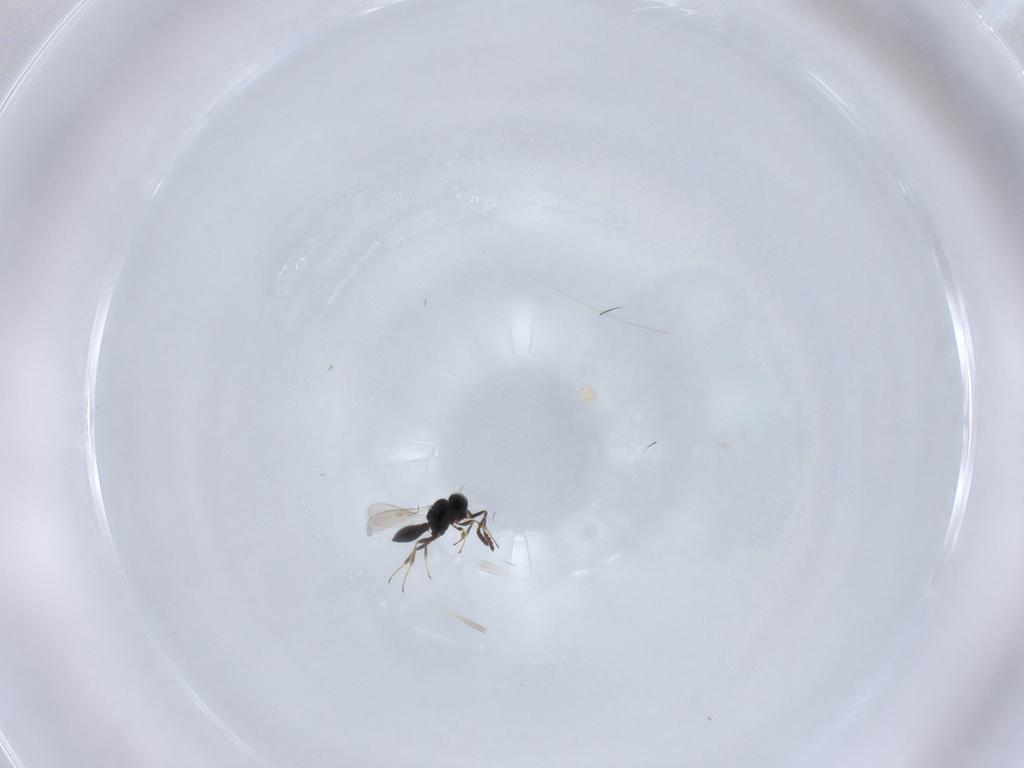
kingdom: Animalia
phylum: Arthropoda
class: Insecta
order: Hymenoptera
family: Scelionidae
